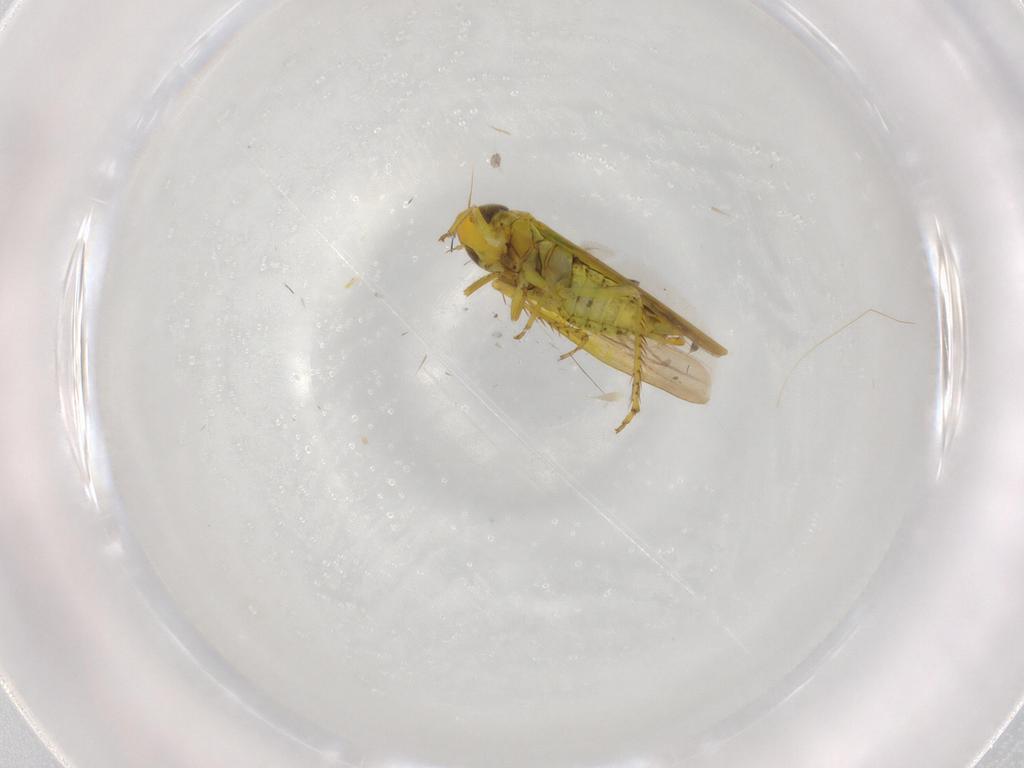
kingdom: Animalia
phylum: Arthropoda
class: Insecta
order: Hemiptera
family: Cicadellidae
